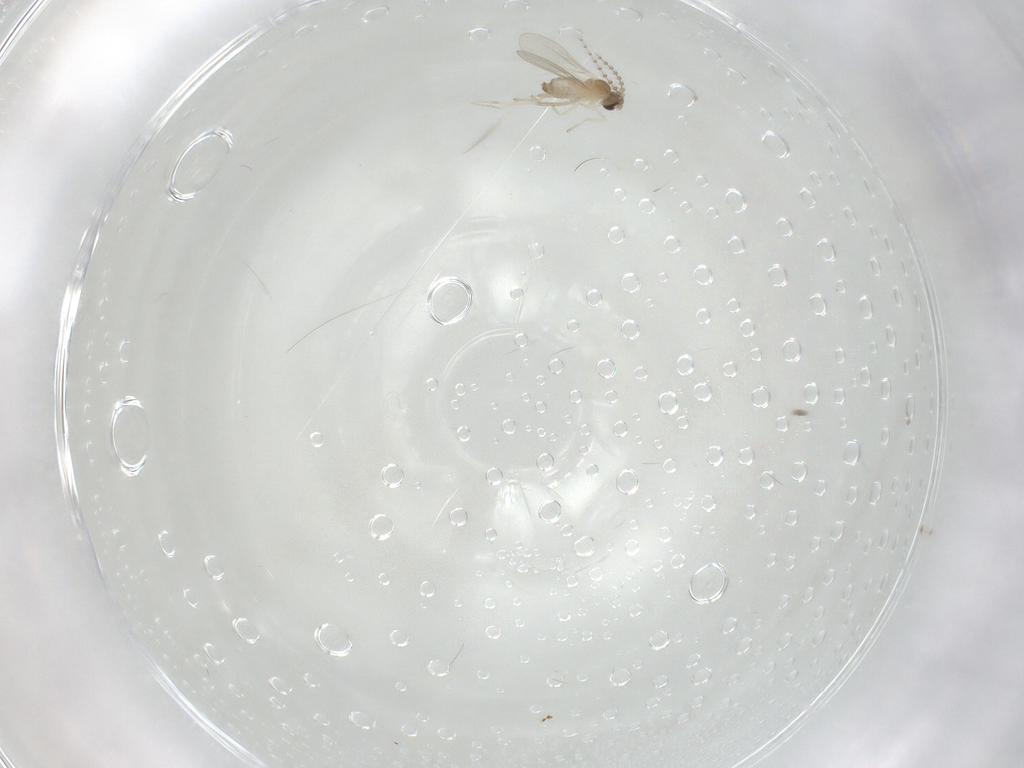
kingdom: Animalia
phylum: Arthropoda
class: Insecta
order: Diptera
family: Cecidomyiidae
